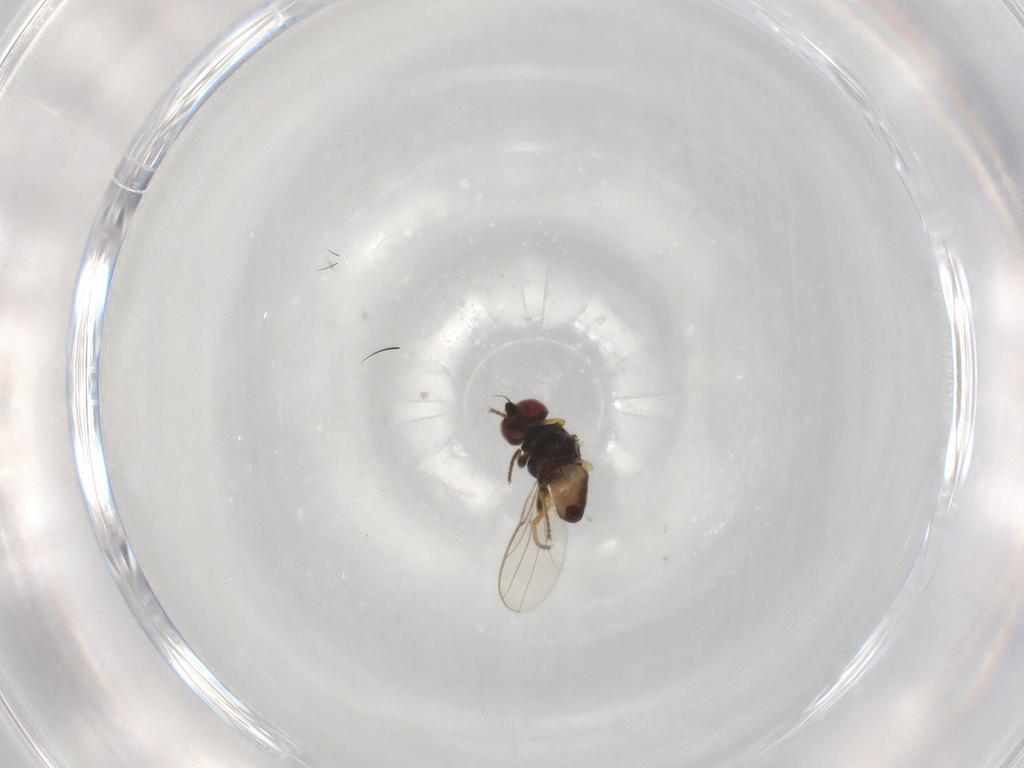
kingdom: Animalia
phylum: Arthropoda
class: Insecta
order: Diptera
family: Chloropidae
